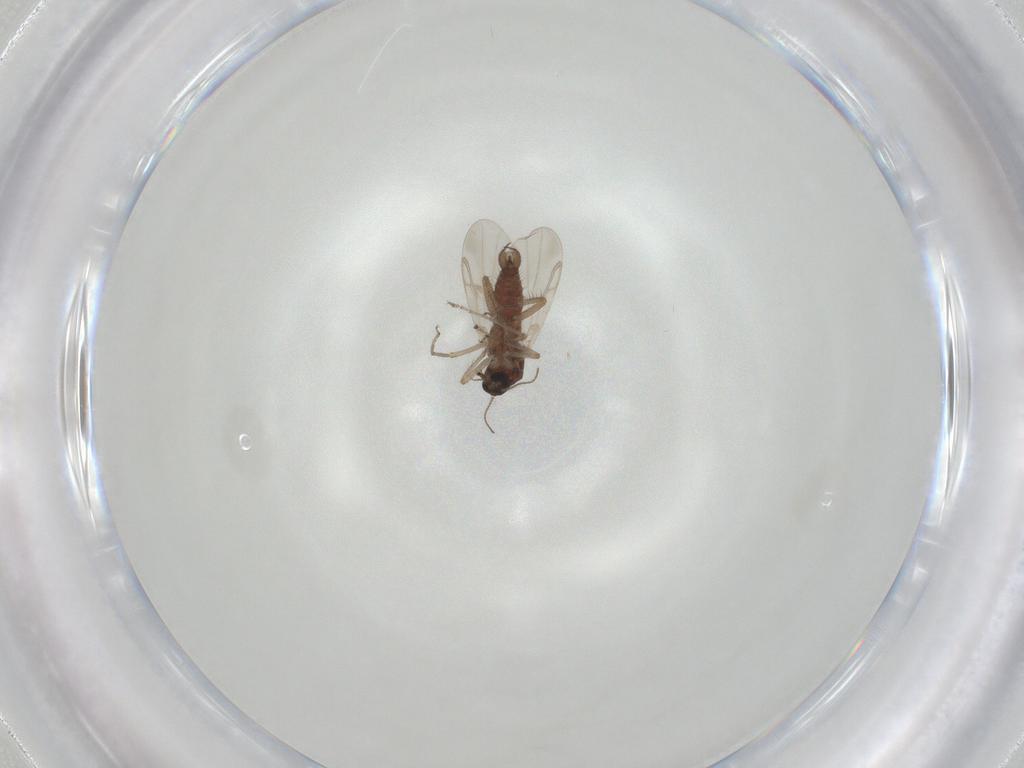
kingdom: Animalia
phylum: Arthropoda
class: Insecta
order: Diptera
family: Ceratopogonidae
